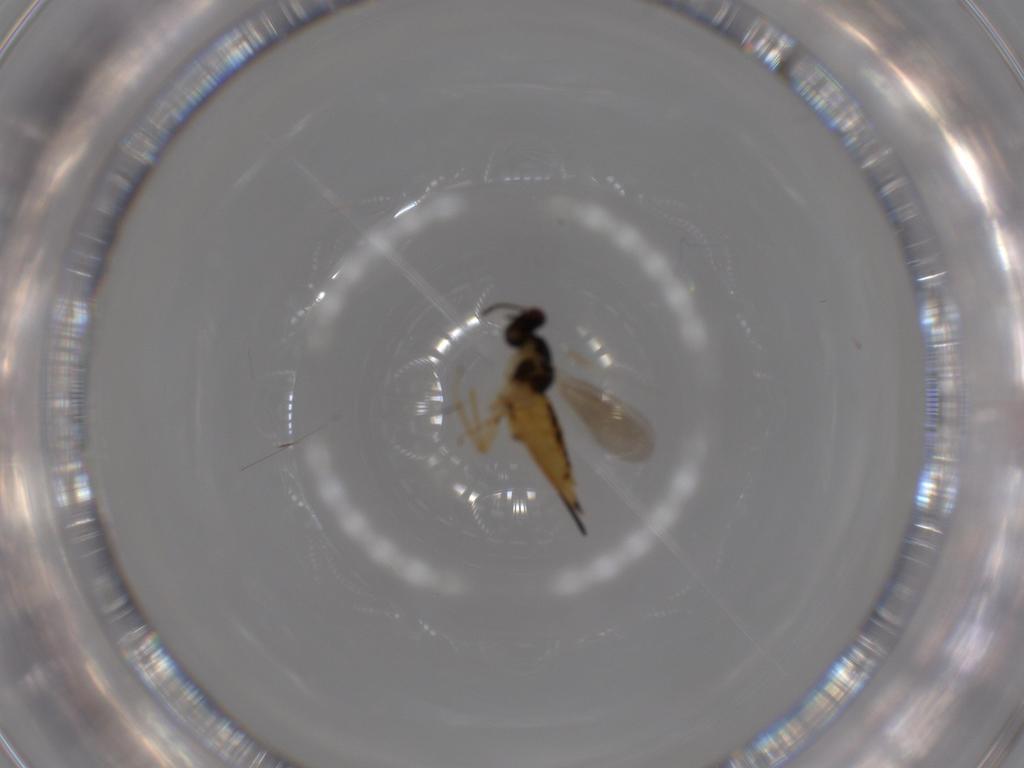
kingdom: Animalia
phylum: Arthropoda
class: Insecta
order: Hymenoptera
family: Eulophidae
